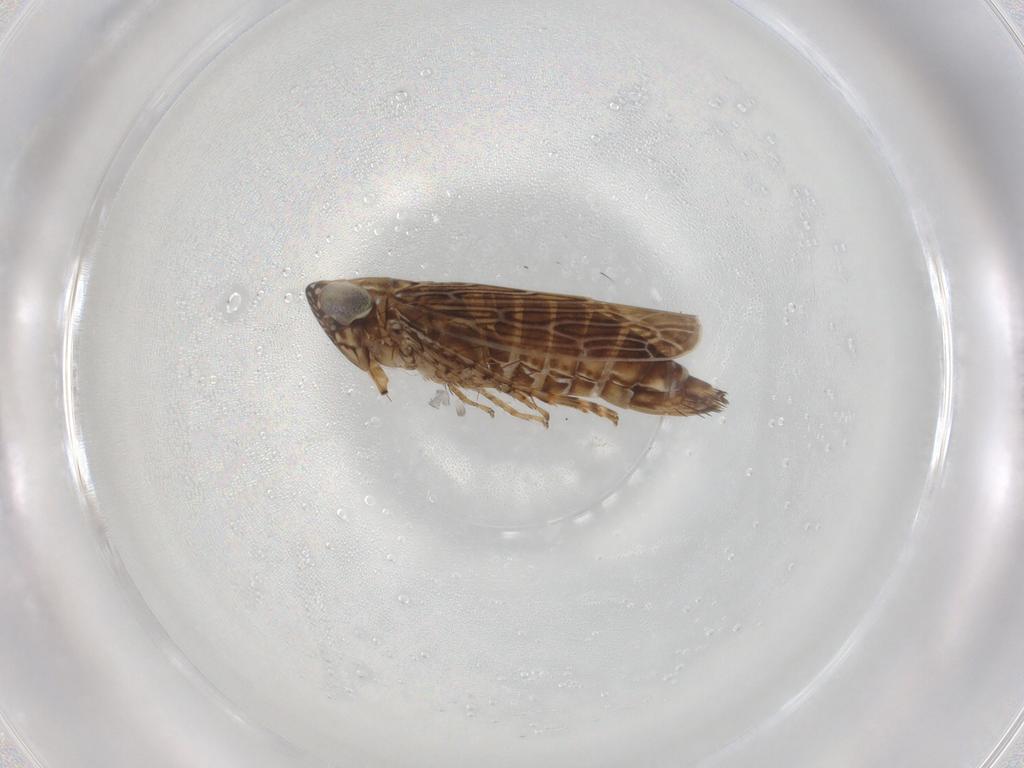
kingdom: Animalia
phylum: Arthropoda
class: Insecta
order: Hemiptera
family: Cicadellidae
